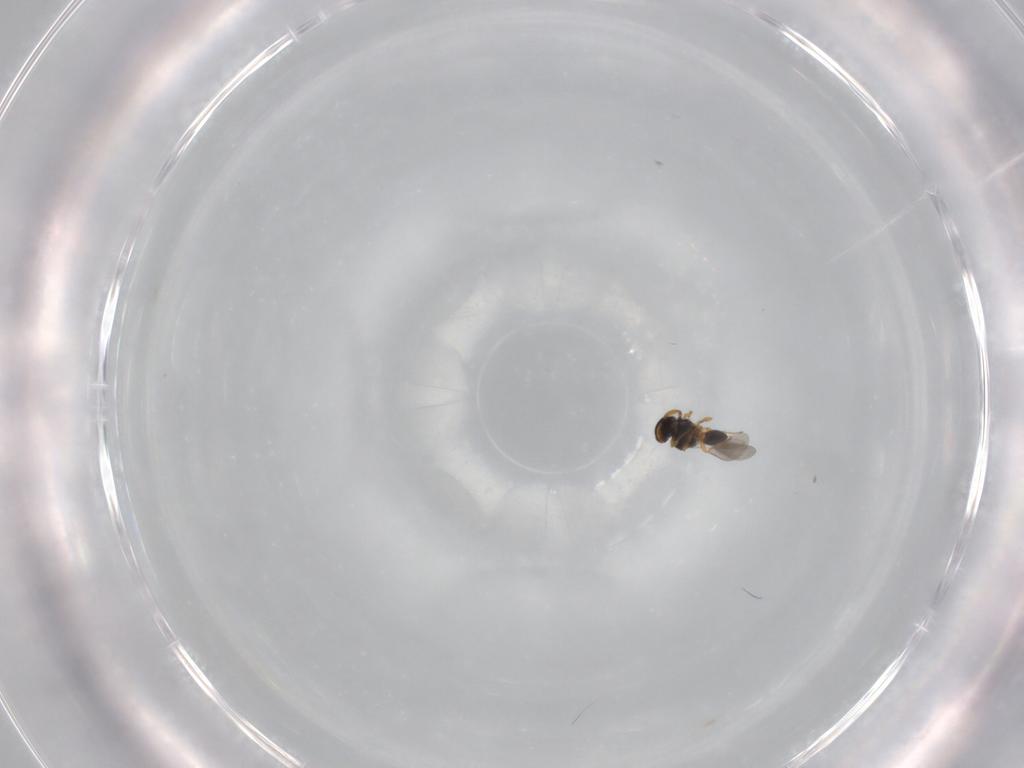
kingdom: Animalia
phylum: Arthropoda
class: Insecta
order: Hymenoptera
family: Platygastridae
